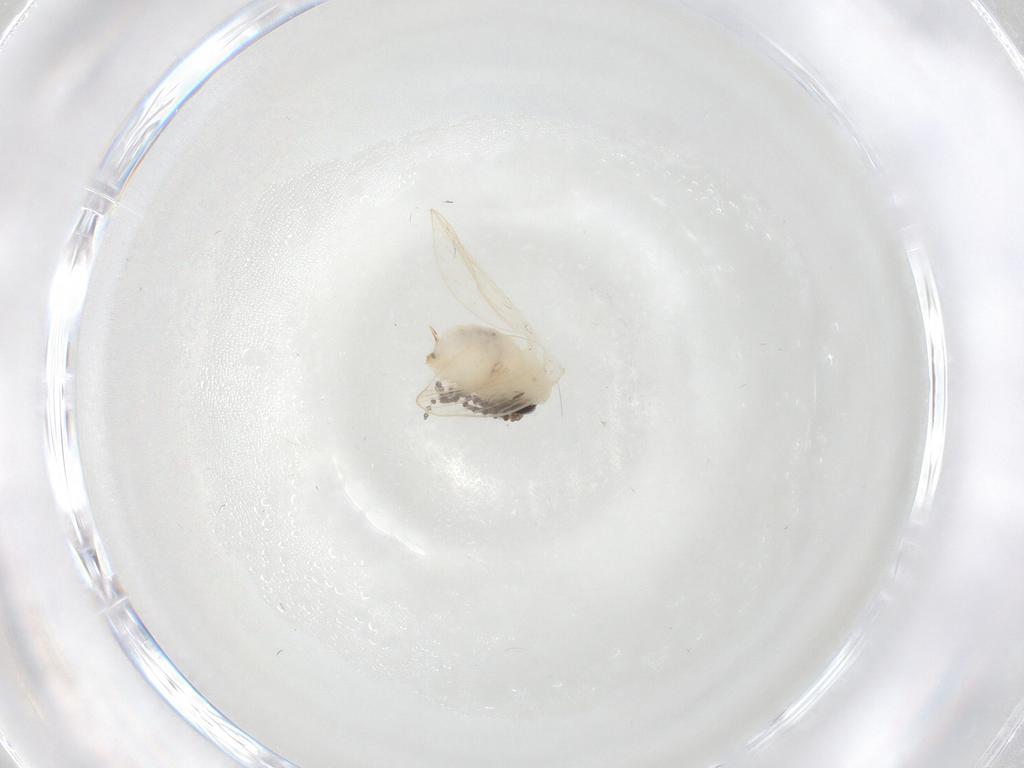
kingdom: Animalia
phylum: Arthropoda
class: Insecta
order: Diptera
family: Psychodidae
